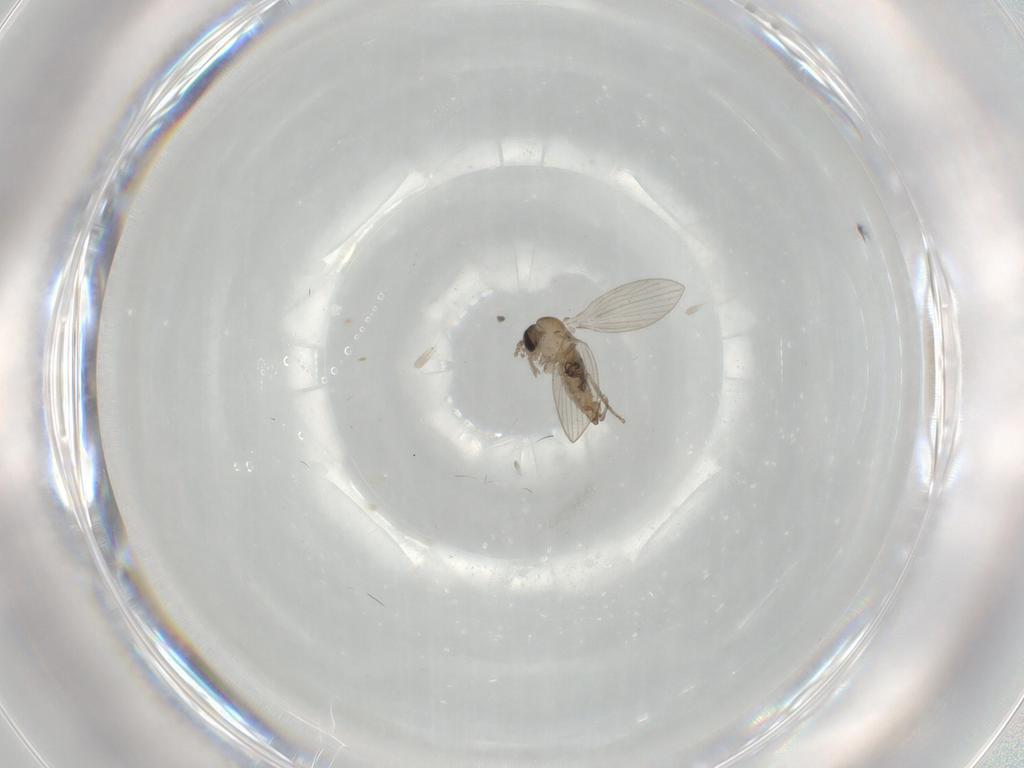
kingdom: Animalia
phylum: Arthropoda
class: Insecta
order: Diptera
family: Psychodidae
